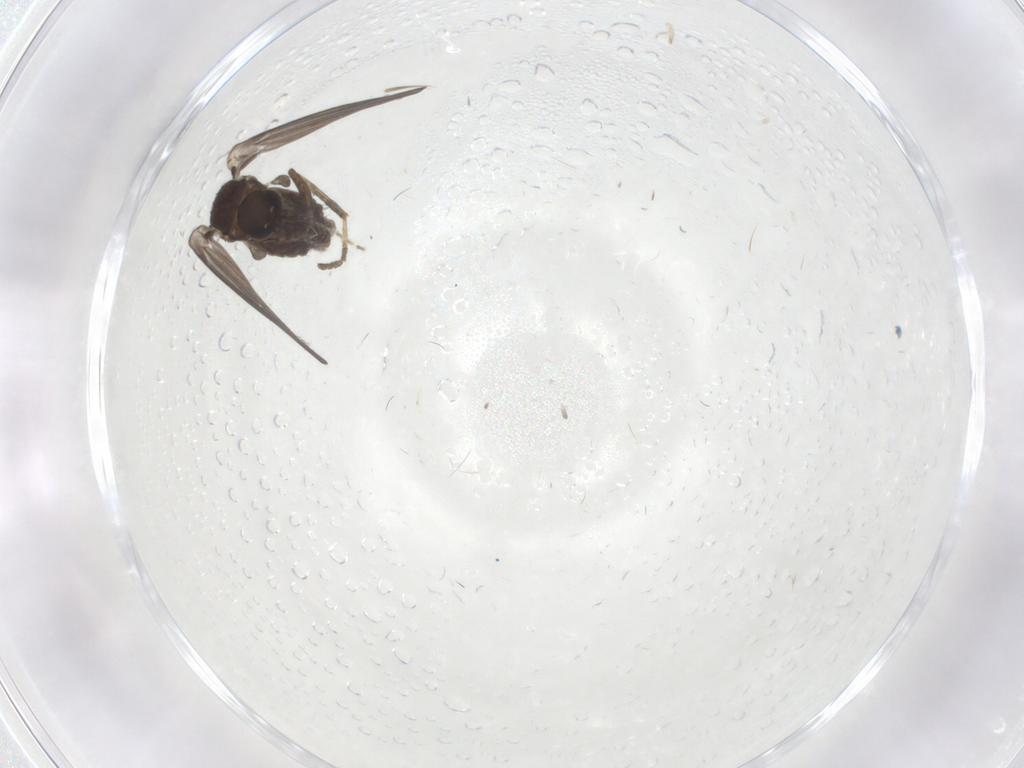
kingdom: Animalia
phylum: Arthropoda
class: Insecta
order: Diptera
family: Psychodidae
